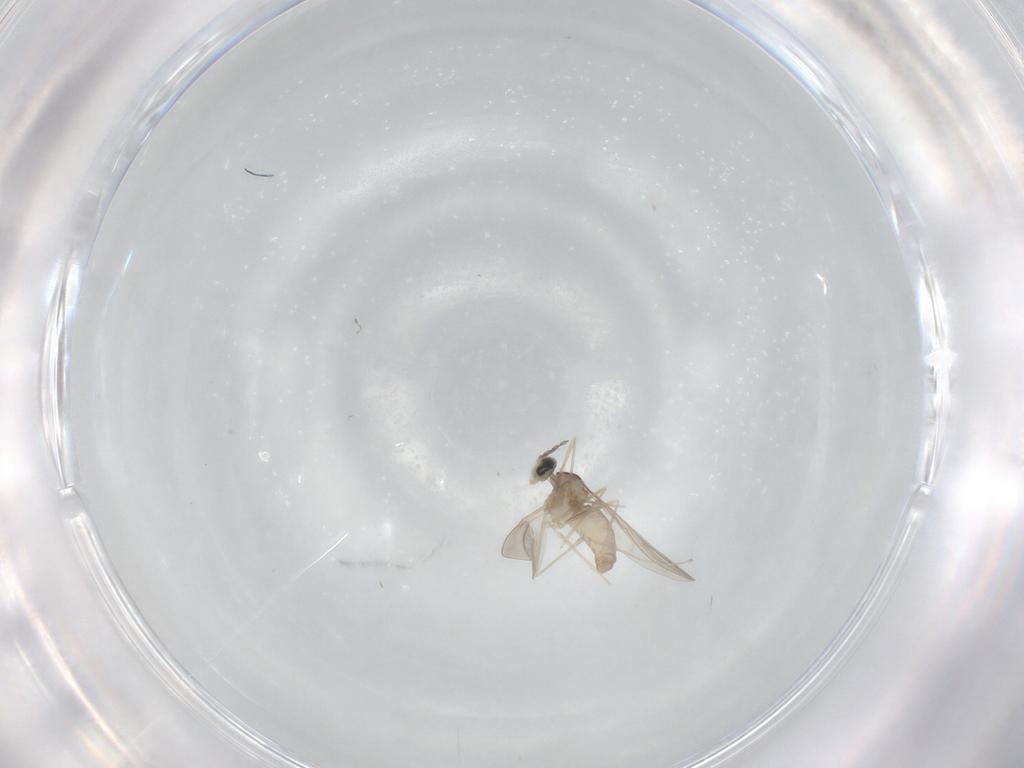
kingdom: Animalia
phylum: Arthropoda
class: Insecta
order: Diptera
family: Cecidomyiidae
